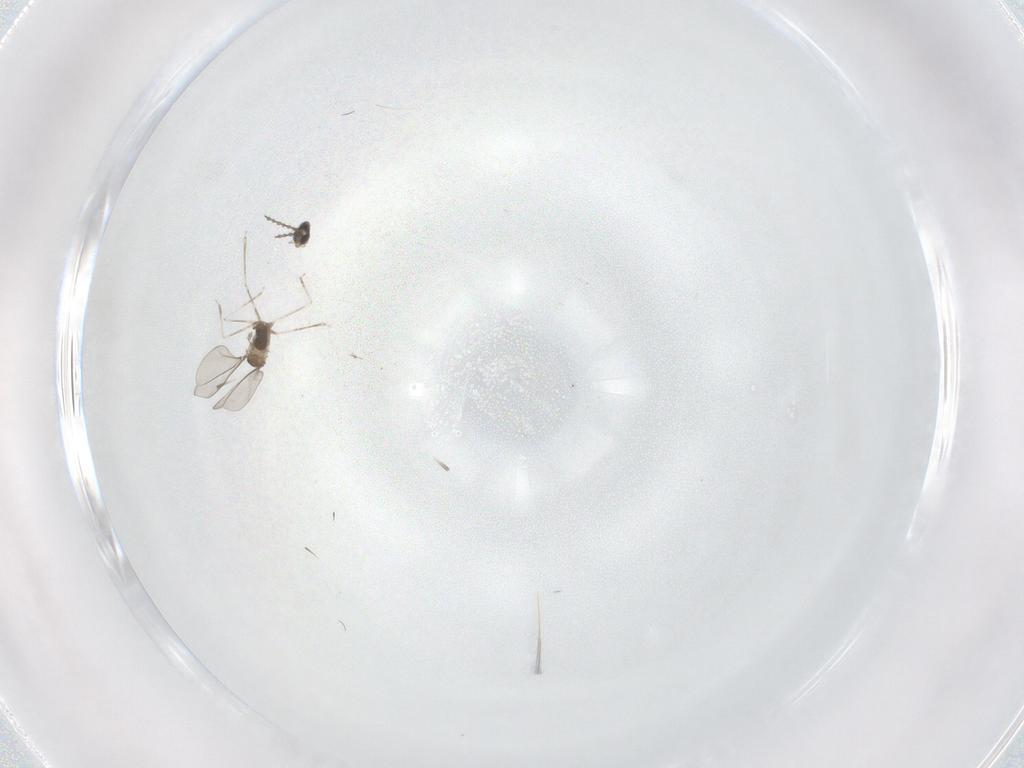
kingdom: Animalia
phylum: Arthropoda
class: Insecta
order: Diptera
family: Cecidomyiidae
